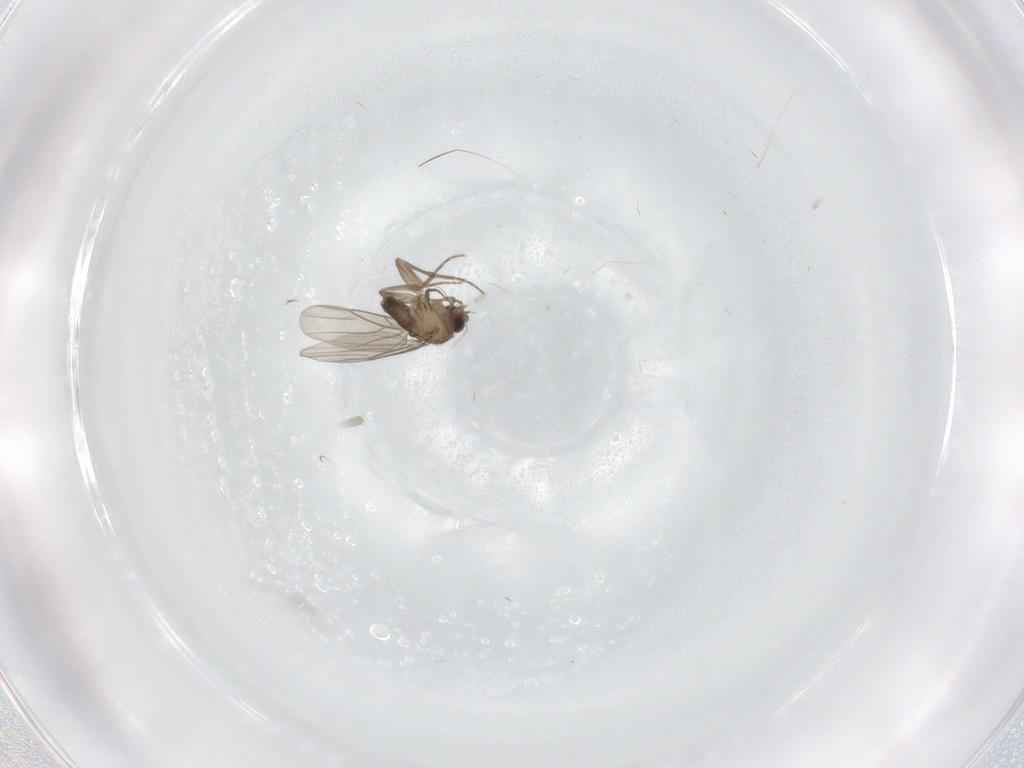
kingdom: Animalia
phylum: Arthropoda
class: Insecta
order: Diptera
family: Phoridae
